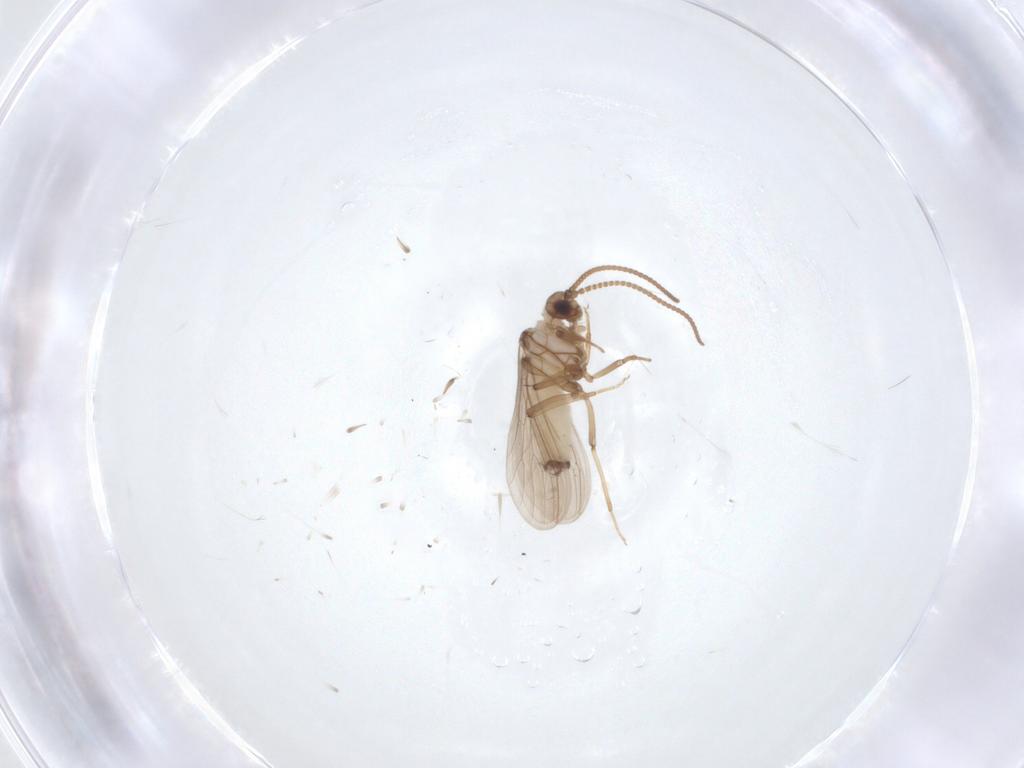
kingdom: Animalia
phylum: Arthropoda
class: Insecta
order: Neuroptera
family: Coniopterygidae
